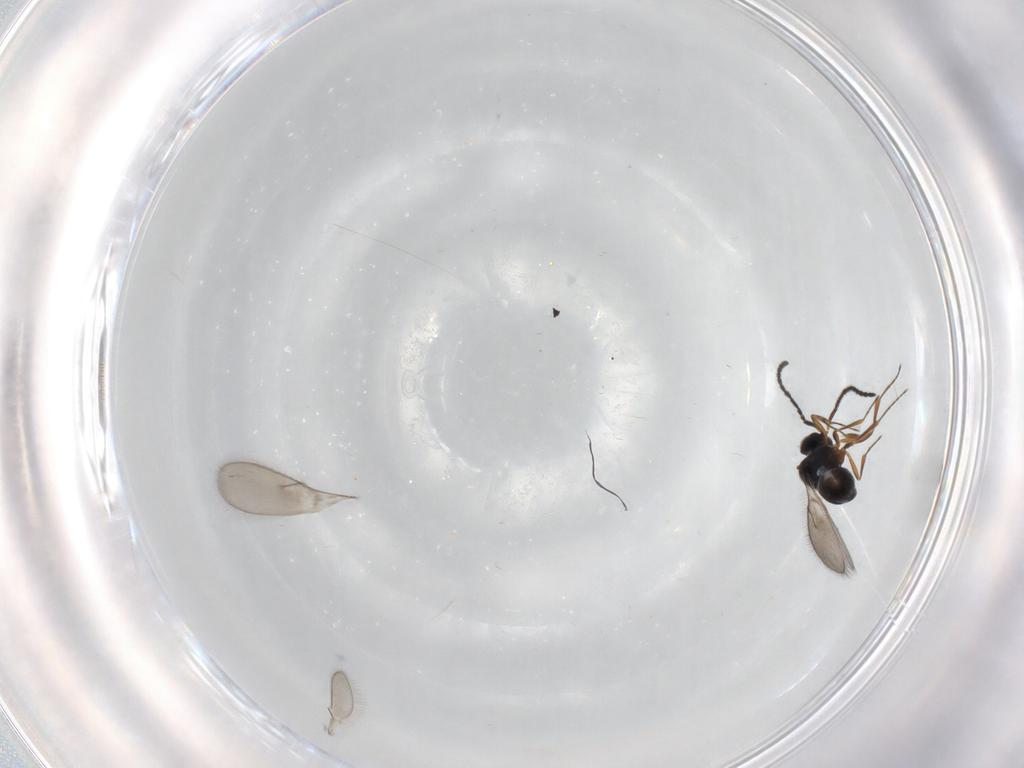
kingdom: Animalia
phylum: Arthropoda
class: Insecta
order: Hymenoptera
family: Scelionidae
